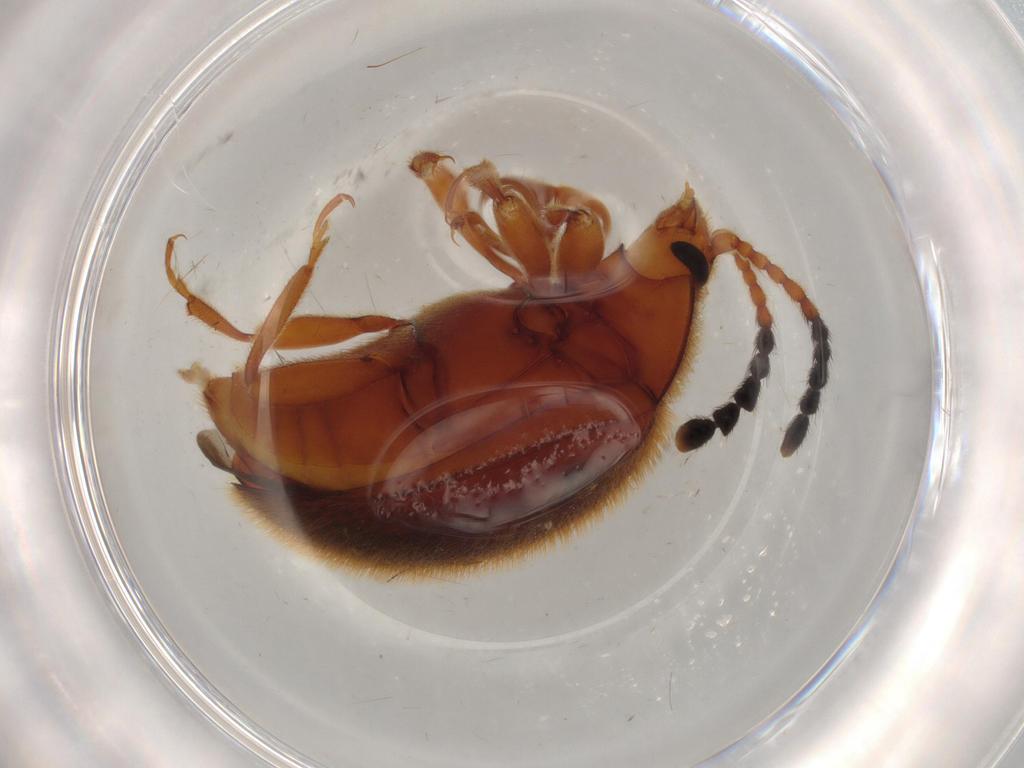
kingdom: Animalia
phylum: Arthropoda
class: Insecta
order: Coleoptera
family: Endomychidae
